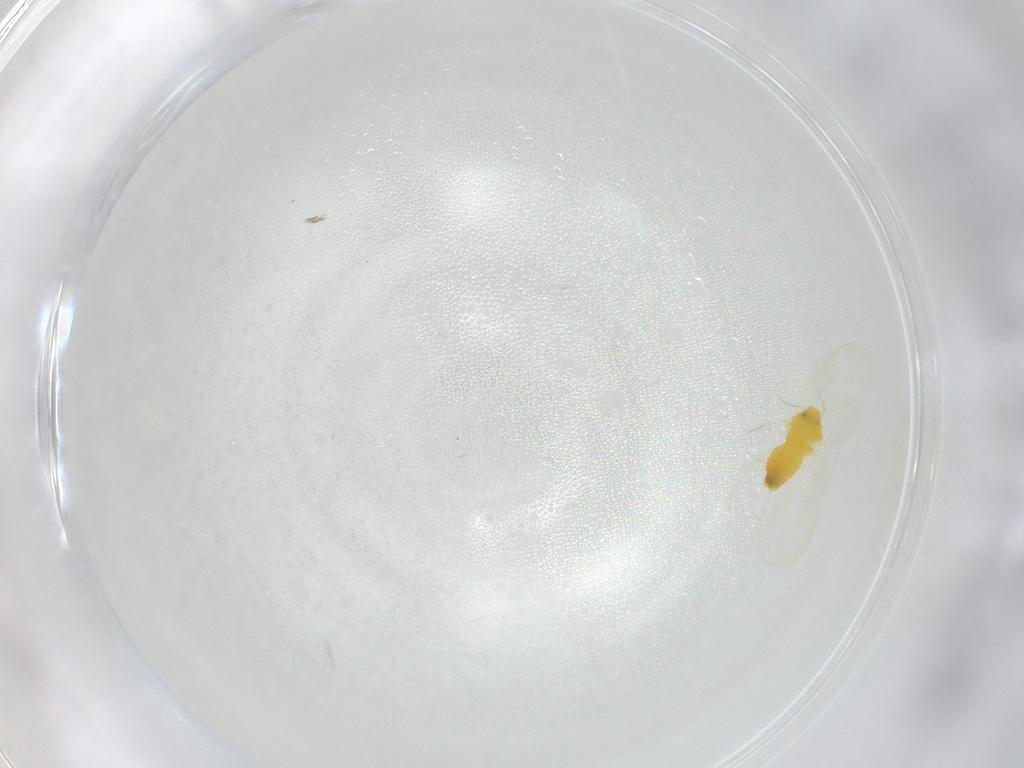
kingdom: Animalia
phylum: Arthropoda
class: Insecta
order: Hemiptera
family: Aleyrodidae
